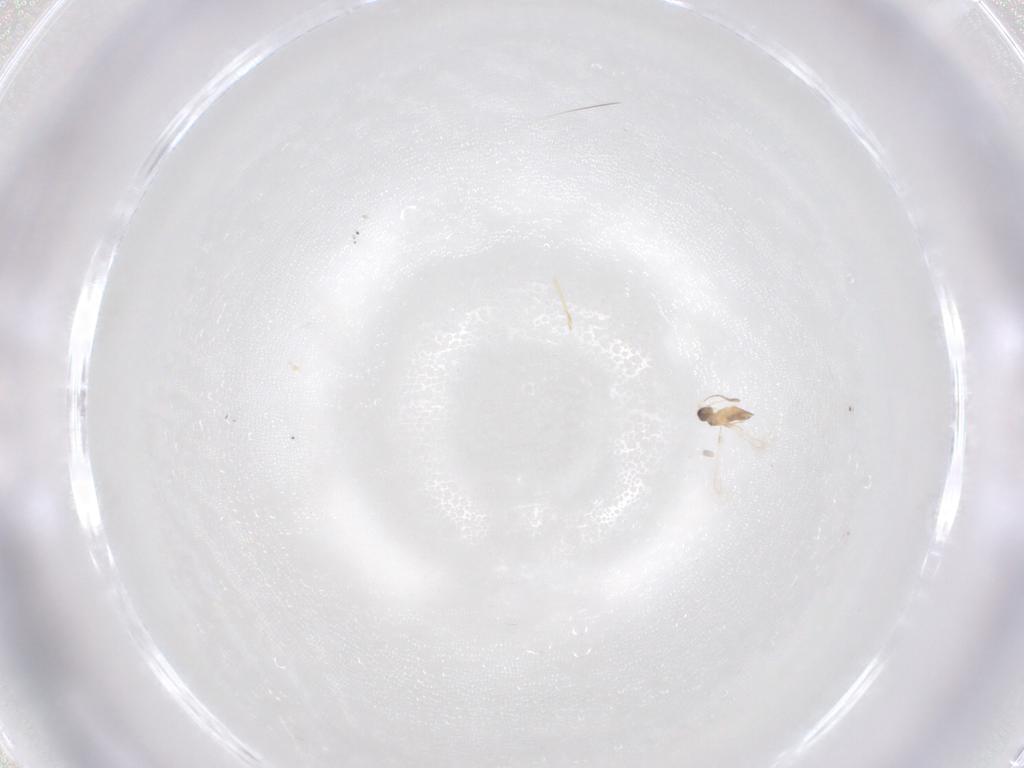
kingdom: Animalia
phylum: Arthropoda
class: Insecta
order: Hymenoptera
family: Mymaridae
